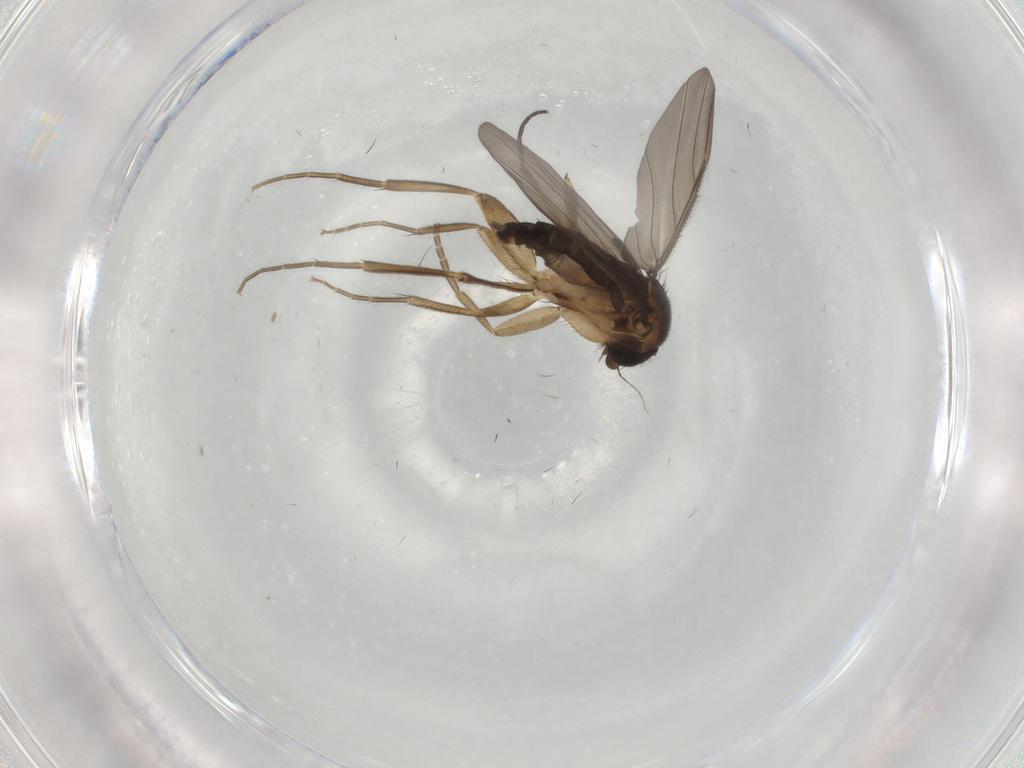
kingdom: Animalia
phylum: Arthropoda
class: Insecta
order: Diptera
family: Phoridae
